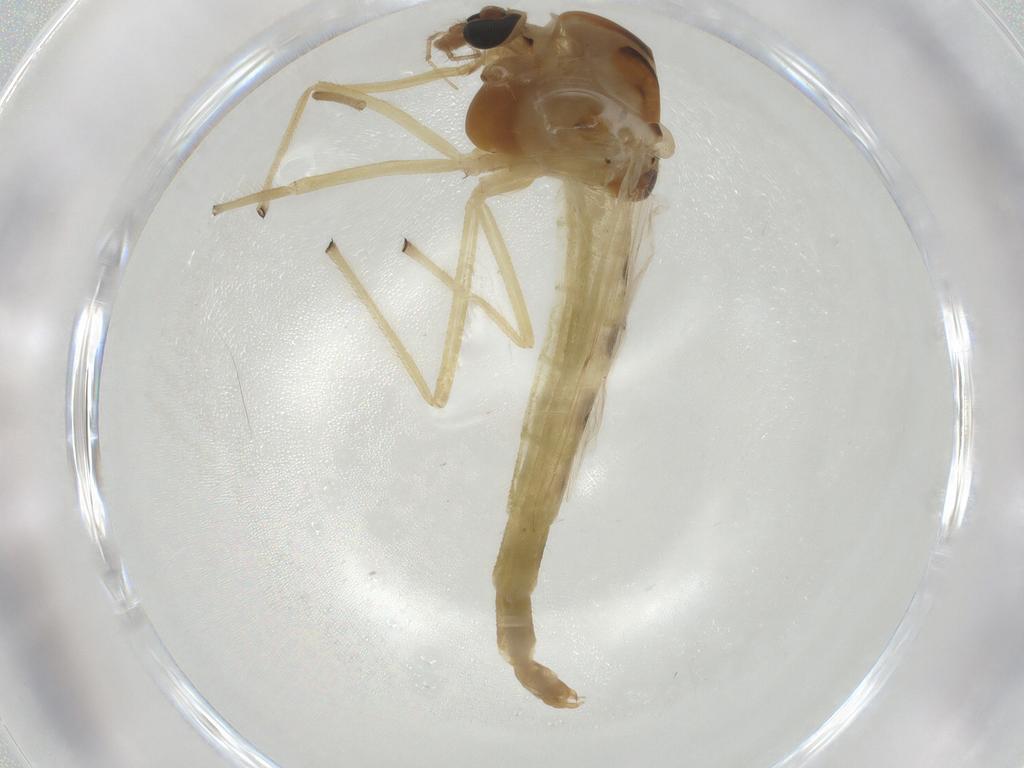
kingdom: Animalia
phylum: Arthropoda
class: Insecta
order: Diptera
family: Chironomidae
